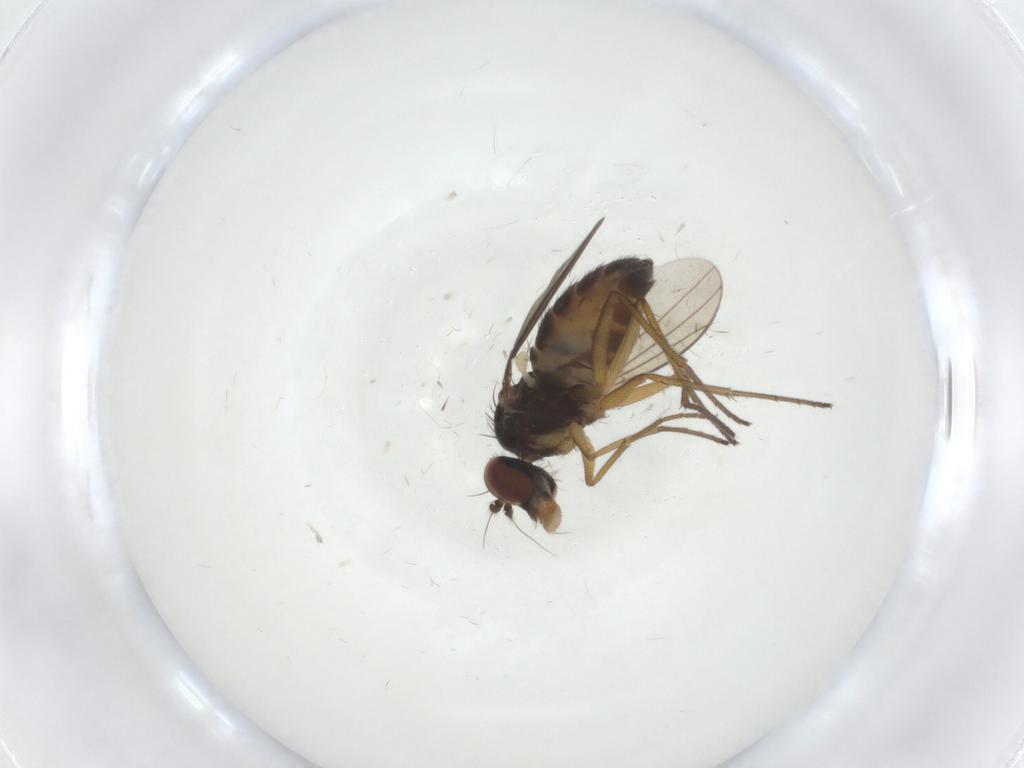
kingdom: Animalia
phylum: Arthropoda
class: Insecta
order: Diptera
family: Dolichopodidae
